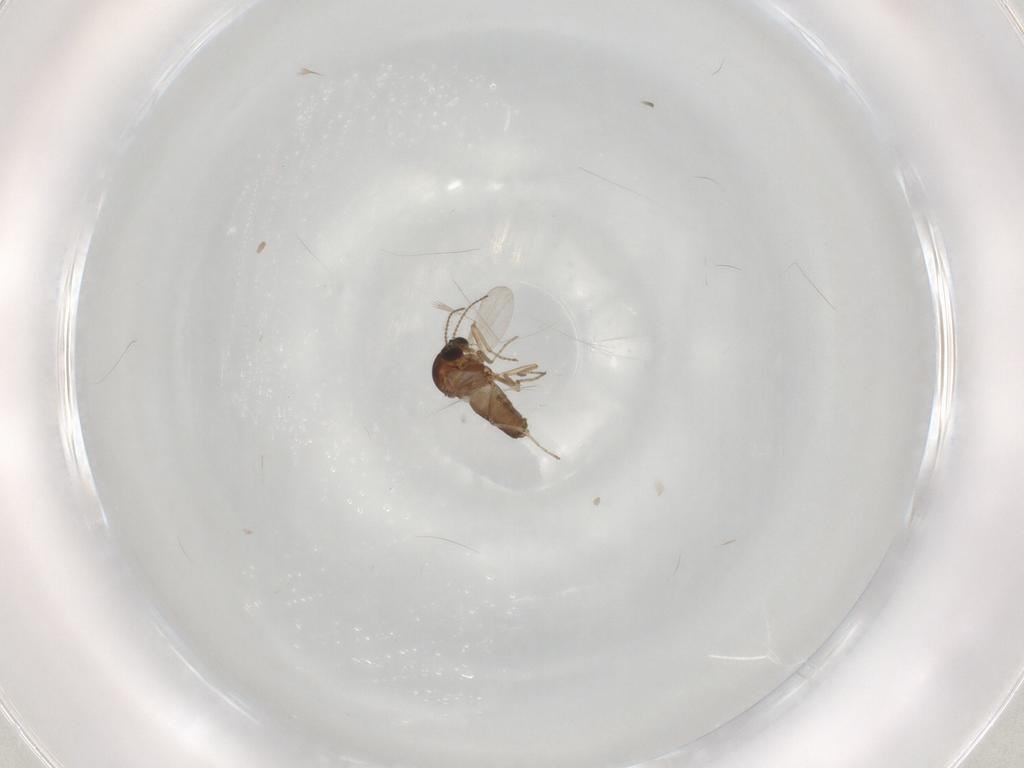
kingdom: Animalia
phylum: Arthropoda
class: Insecta
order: Diptera
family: Ceratopogonidae
